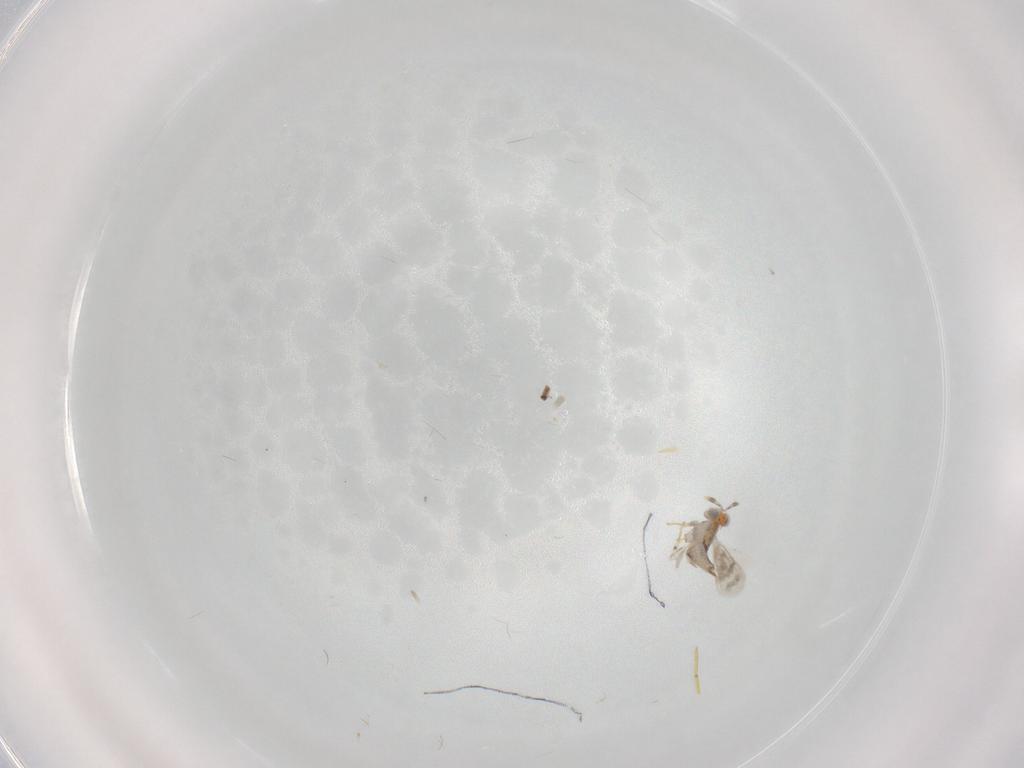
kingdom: Animalia
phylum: Arthropoda
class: Insecta
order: Hymenoptera
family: Aphelinidae
